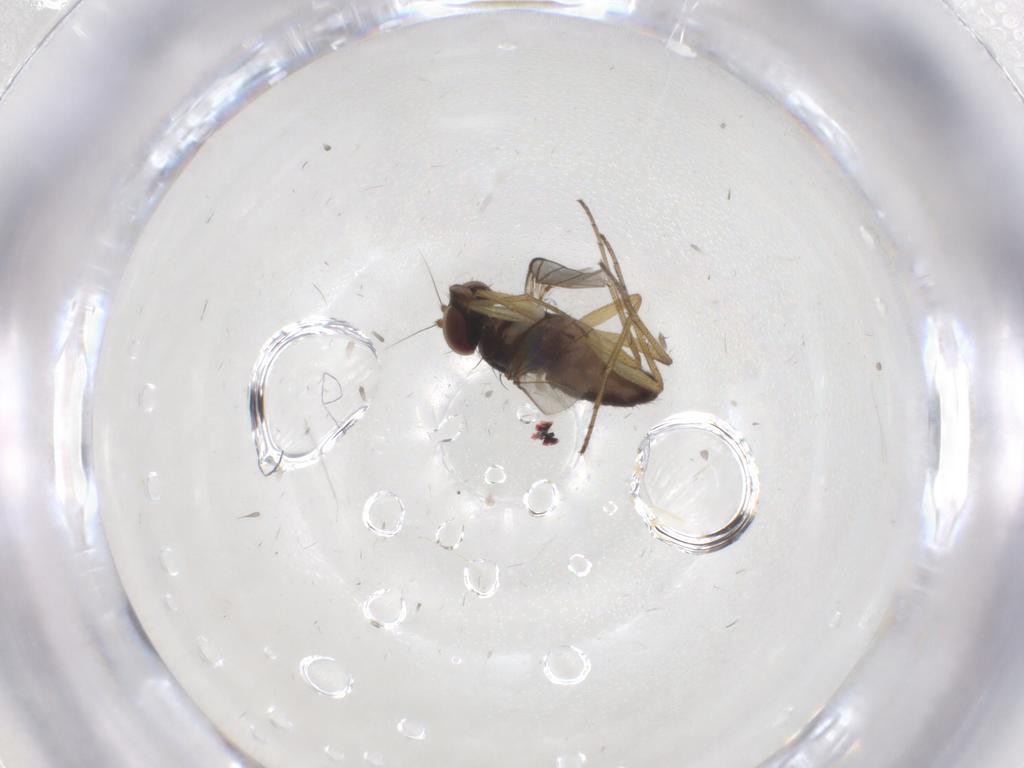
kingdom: Animalia
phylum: Arthropoda
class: Insecta
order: Diptera
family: Dolichopodidae
